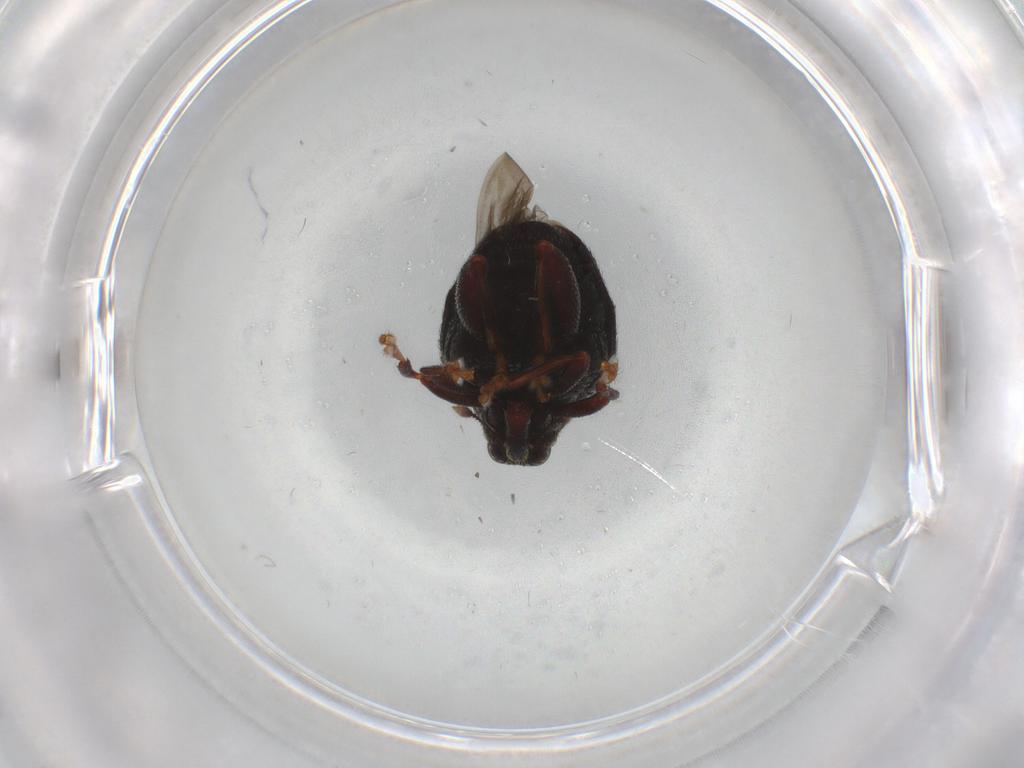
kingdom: Animalia
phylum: Arthropoda
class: Insecta
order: Coleoptera
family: Curculionidae
